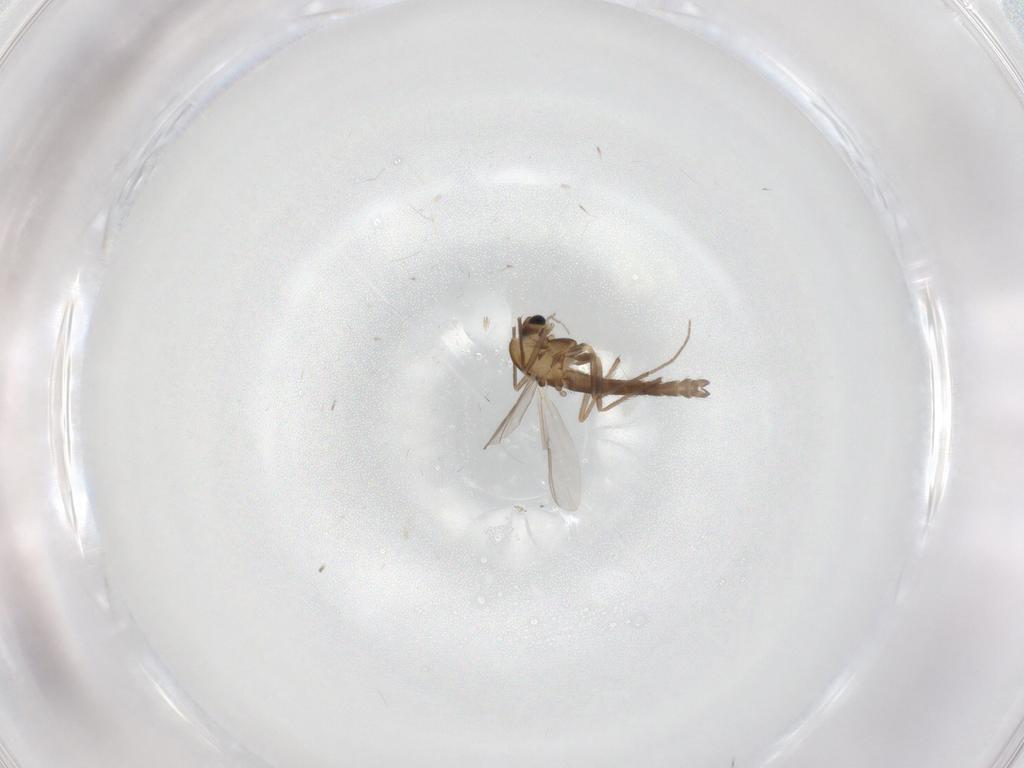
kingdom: Animalia
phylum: Arthropoda
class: Insecta
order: Diptera
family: Chironomidae
